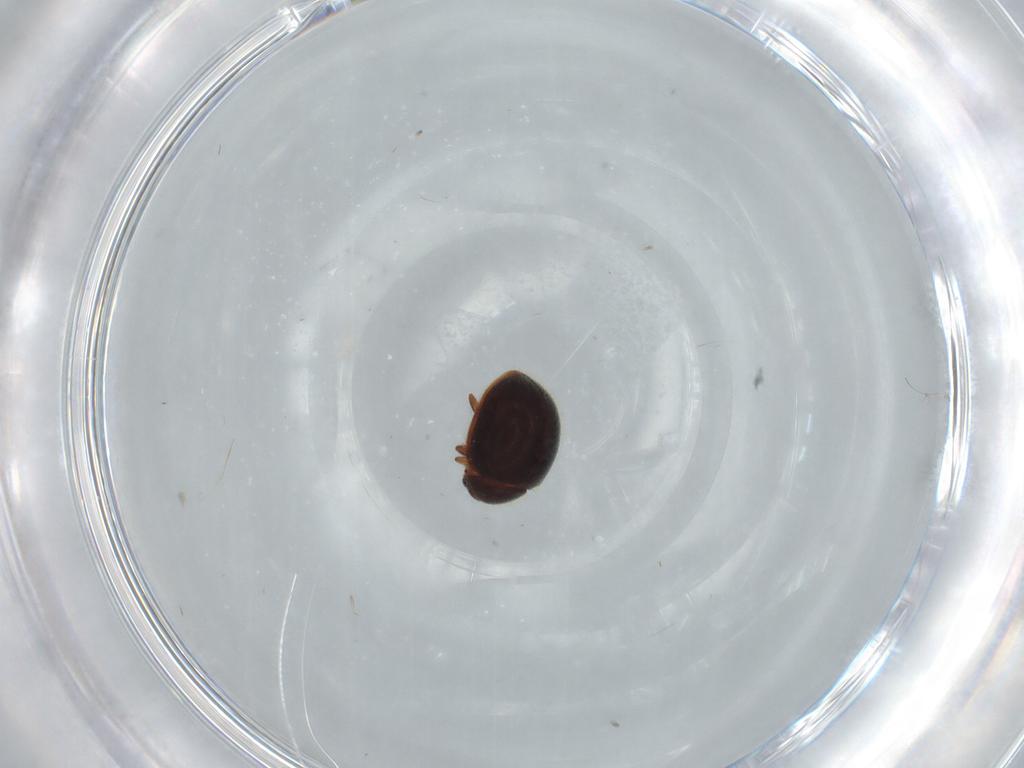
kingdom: Animalia
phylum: Arthropoda
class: Insecta
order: Coleoptera
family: Coccinellidae
